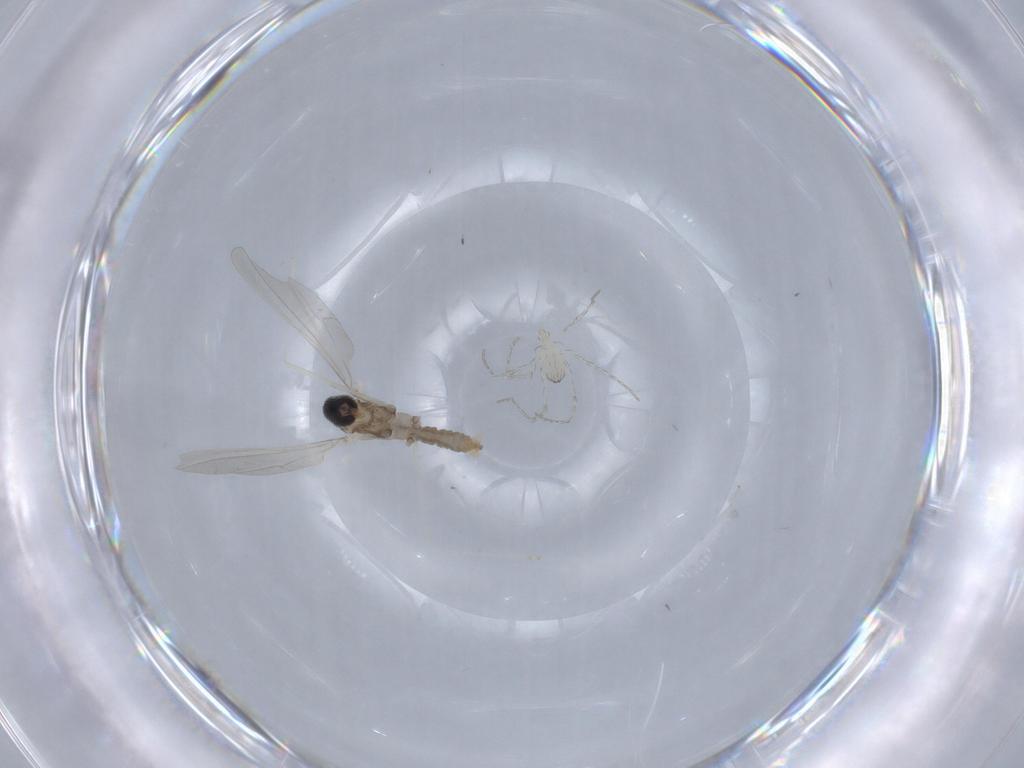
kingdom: Animalia
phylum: Arthropoda
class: Insecta
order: Diptera
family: Cecidomyiidae
